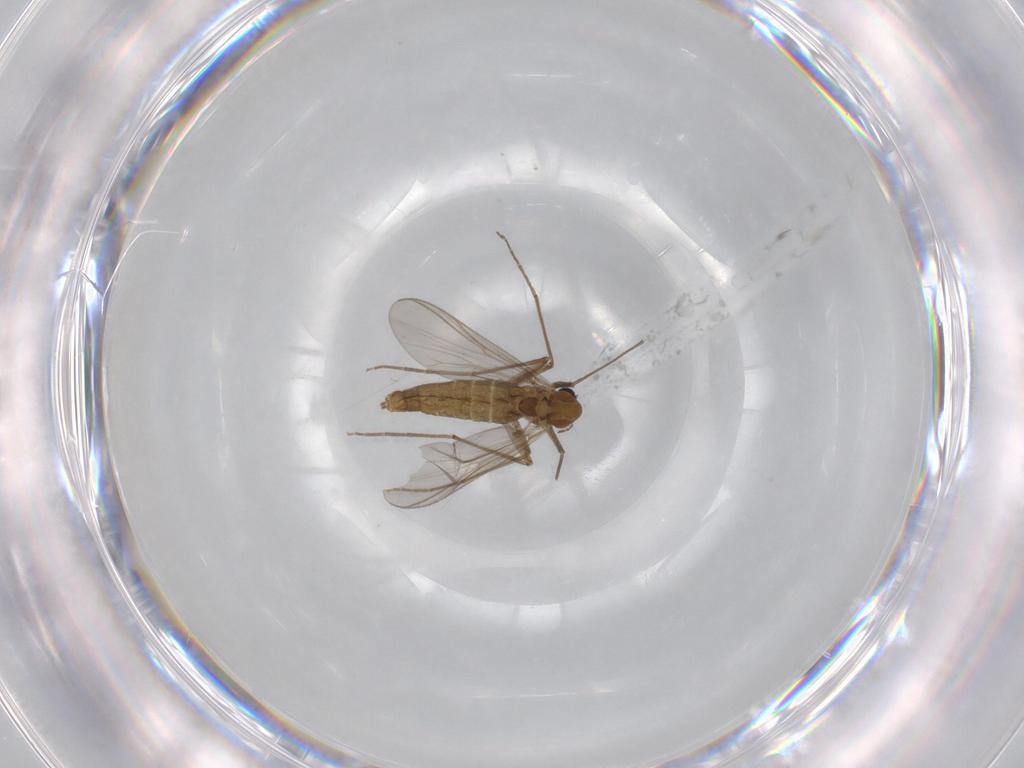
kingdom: Animalia
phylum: Arthropoda
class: Insecta
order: Diptera
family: Chironomidae
